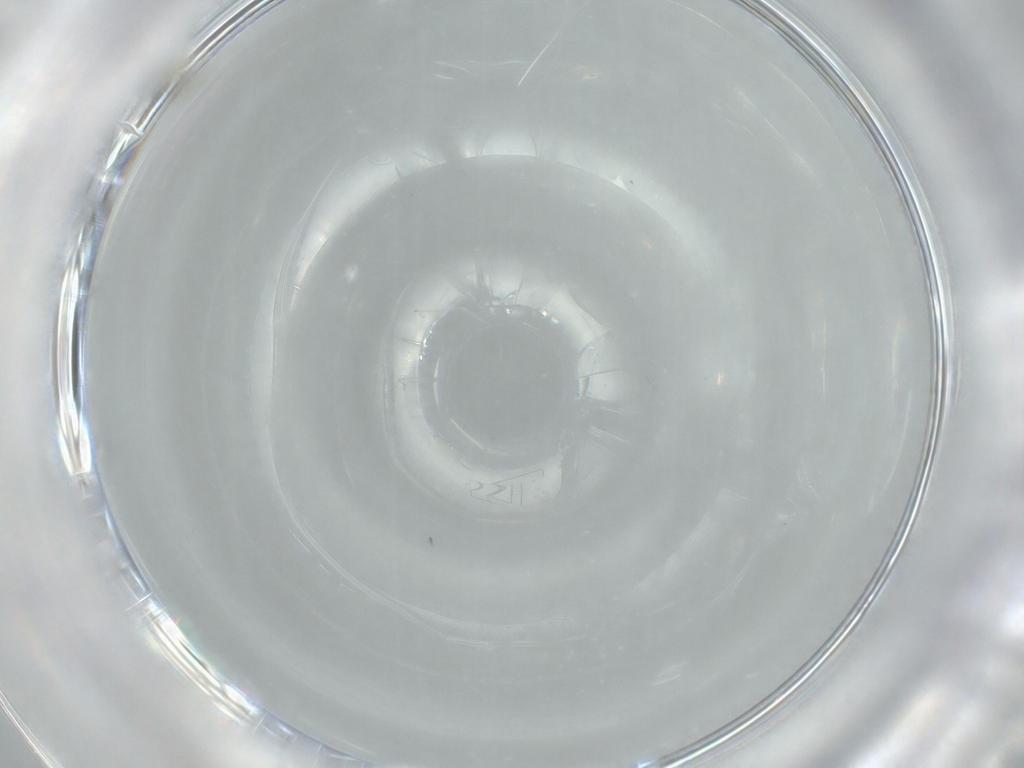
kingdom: Animalia
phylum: Arthropoda
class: Insecta
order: Diptera
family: Cecidomyiidae
